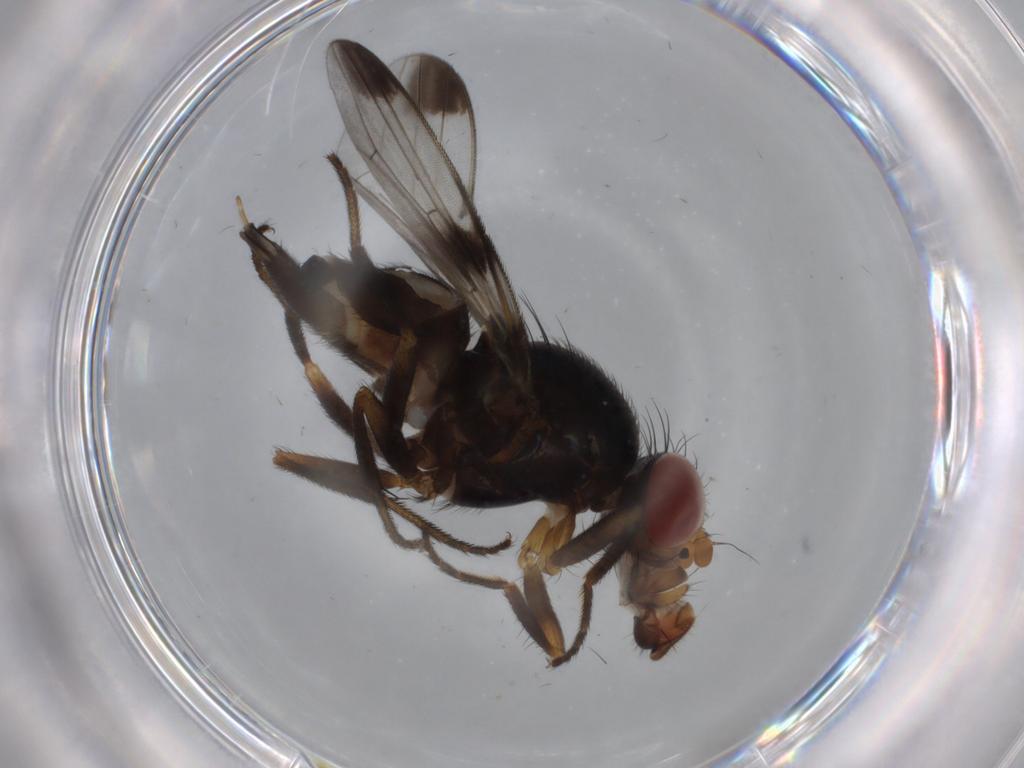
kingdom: Animalia
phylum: Arthropoda
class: Insecta
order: Diptera
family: Ulidiidae
